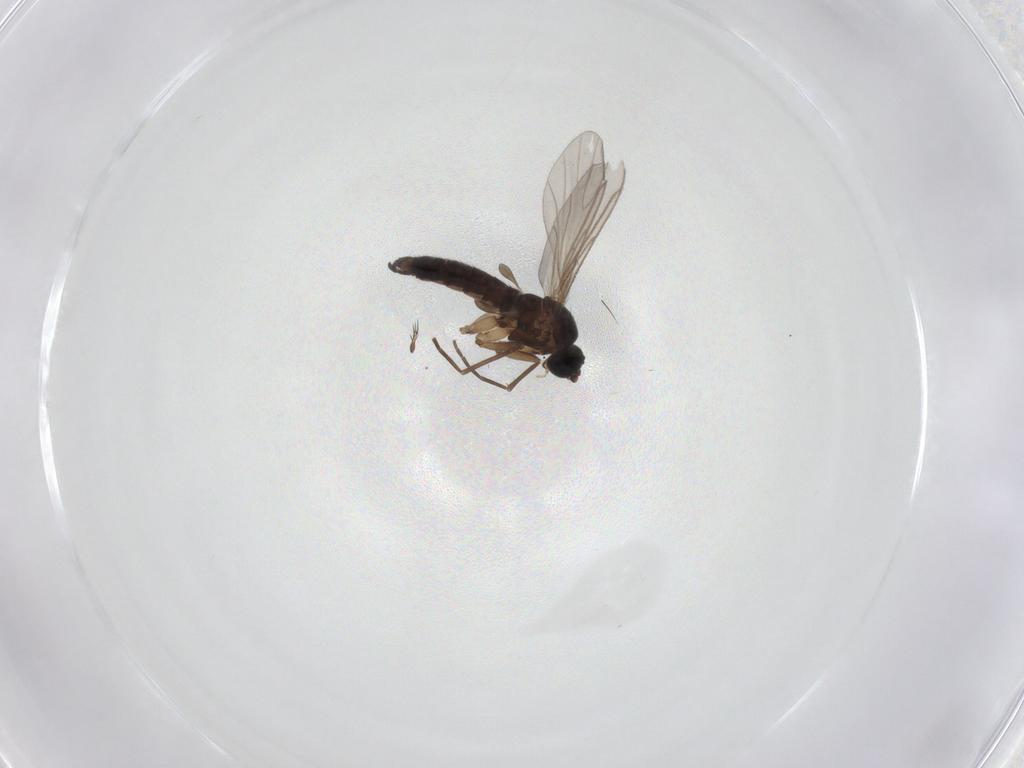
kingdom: Animalia
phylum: Arthropoda
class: Insecta
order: Diptera
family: Sciaridae
